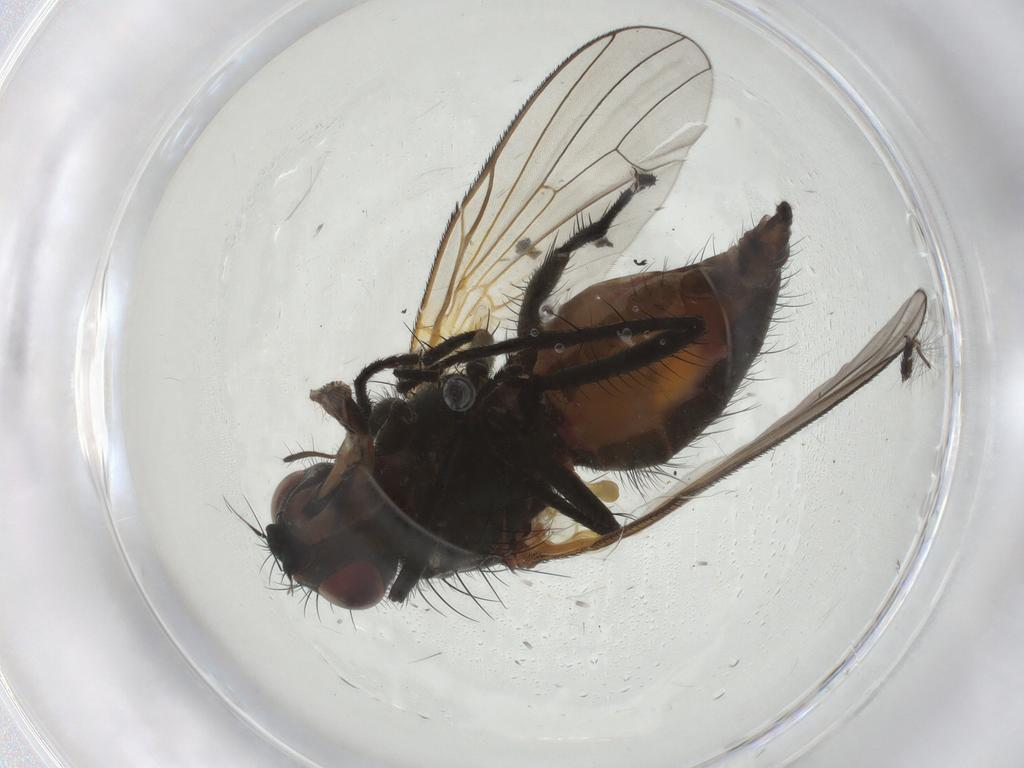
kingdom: Animalia
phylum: Arthropoda
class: Insecta
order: Diptera
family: Anthomyiidae
